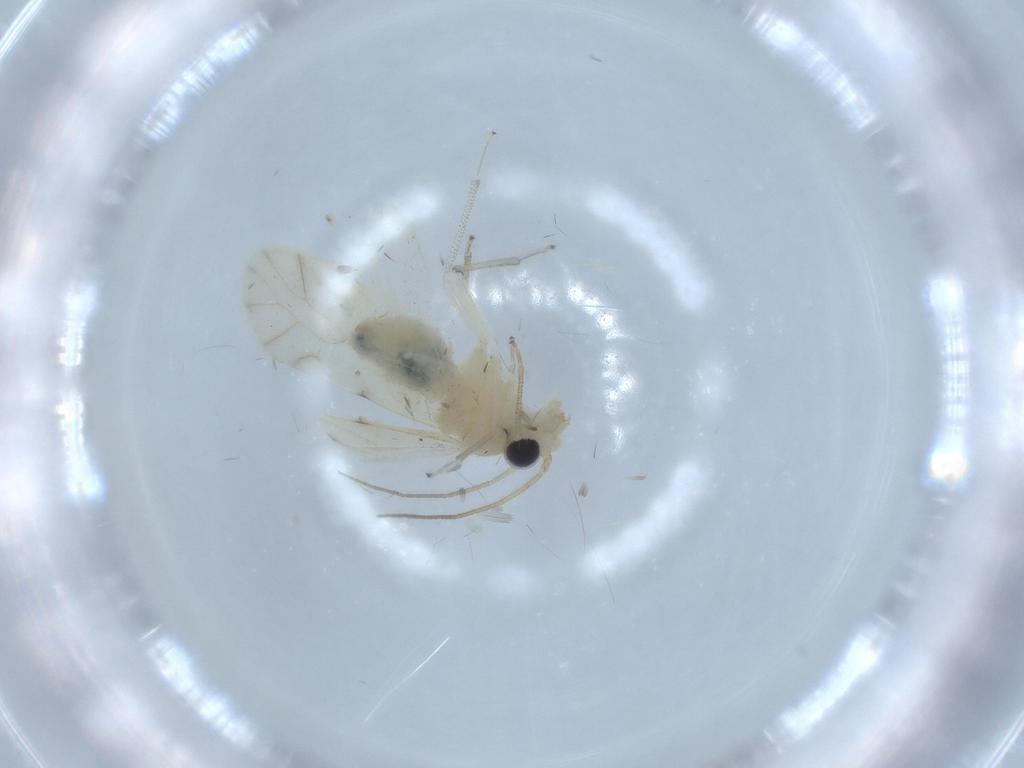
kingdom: Animalia
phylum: Arthropoda
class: Insecta
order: Psocodea
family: Caeciliusidae
